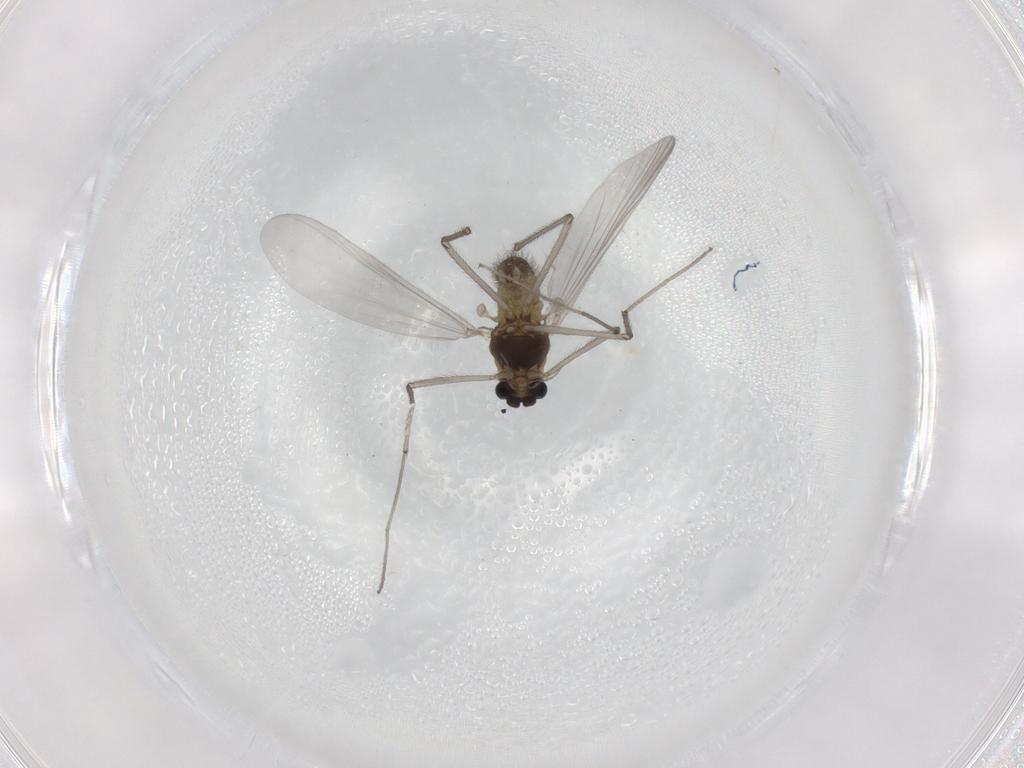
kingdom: Animalia
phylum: Arthropoda
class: Insecta
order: Diptera
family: Chironomidae
